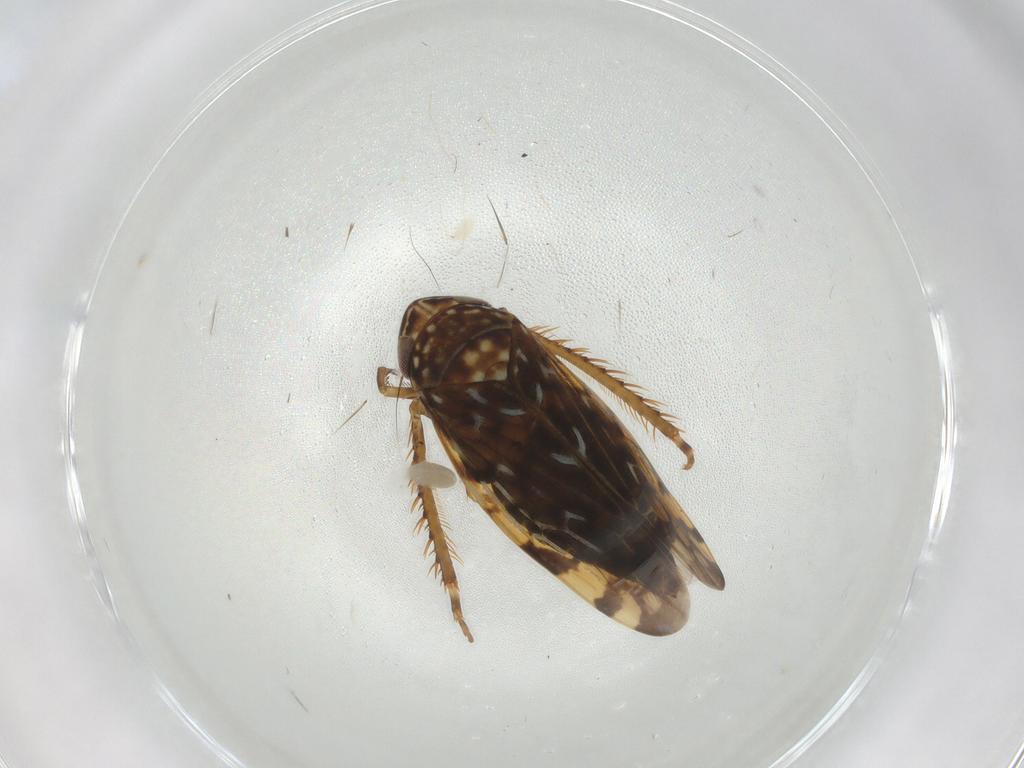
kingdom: Animalia
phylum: Arthropoda
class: Insecta
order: Hemiptera
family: Cicadellidae
